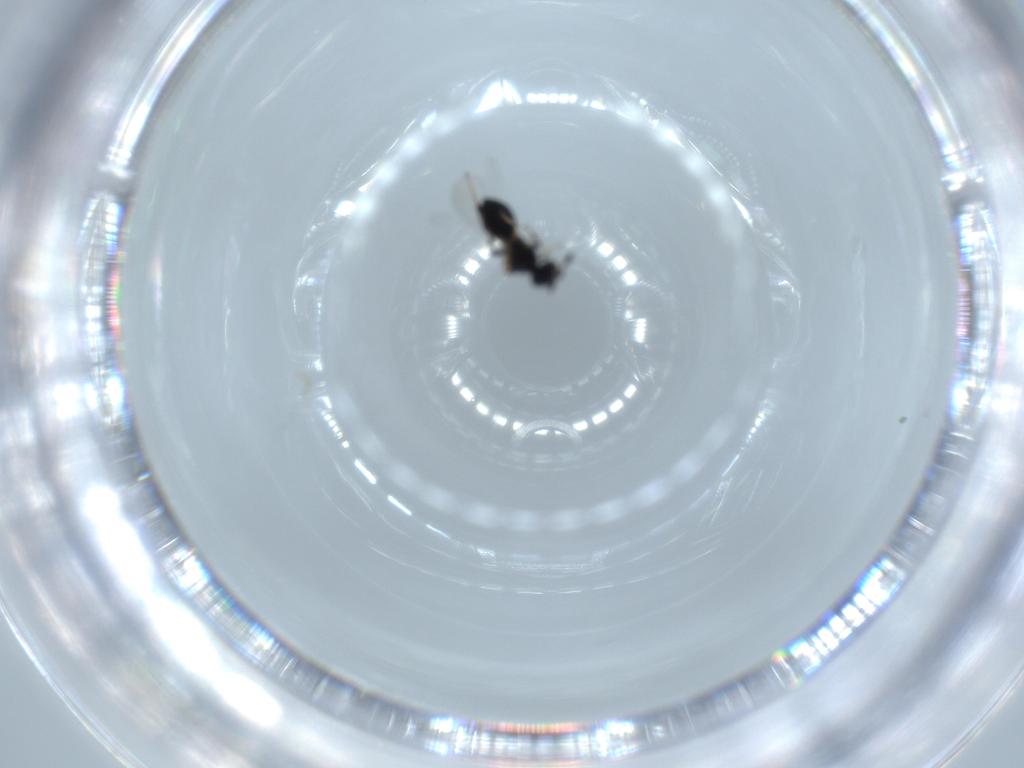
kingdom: Animalia
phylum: Arthropoda
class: Insecta
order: Hymenoptera
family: Platygastridae
